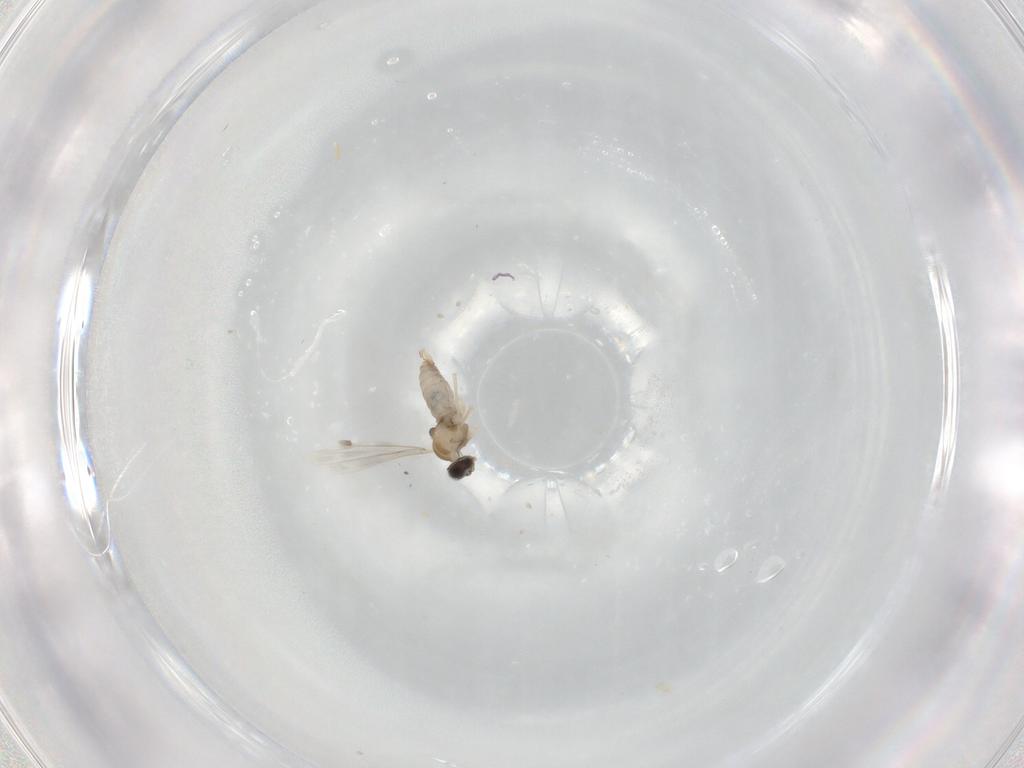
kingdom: Animalia
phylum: Arthropoda
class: Insecta
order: Diptera
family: Cecidomyiidae
